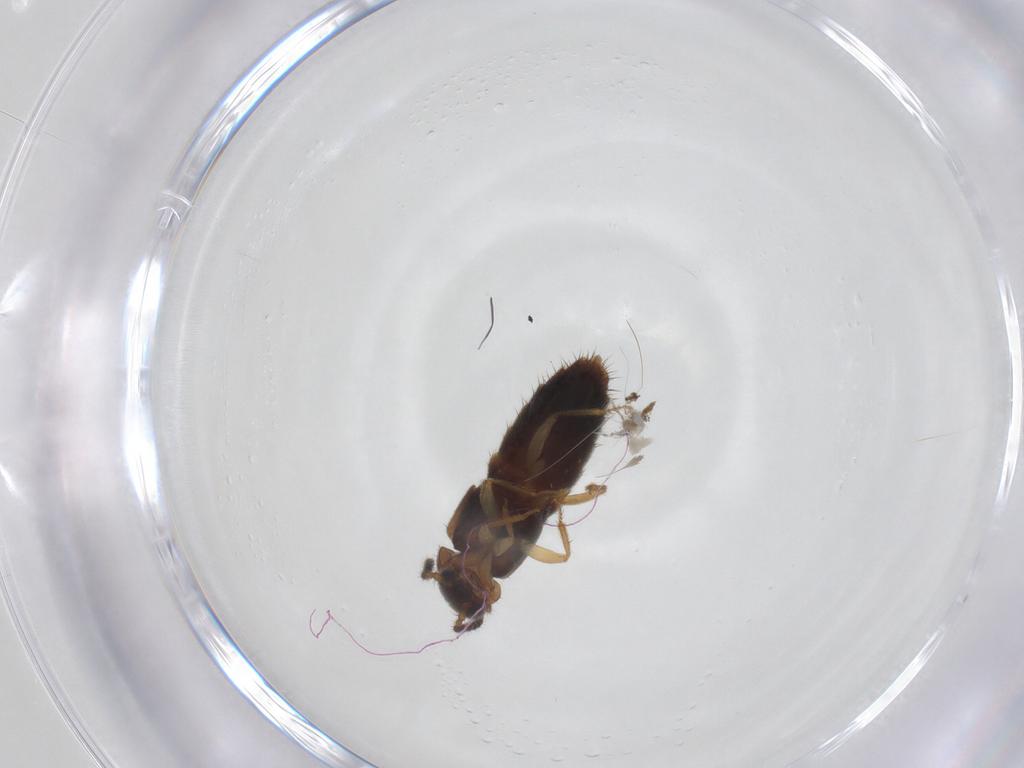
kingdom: Animalia
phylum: Arthropoda
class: Insecta
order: Coleoptera
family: Staphylinidae
